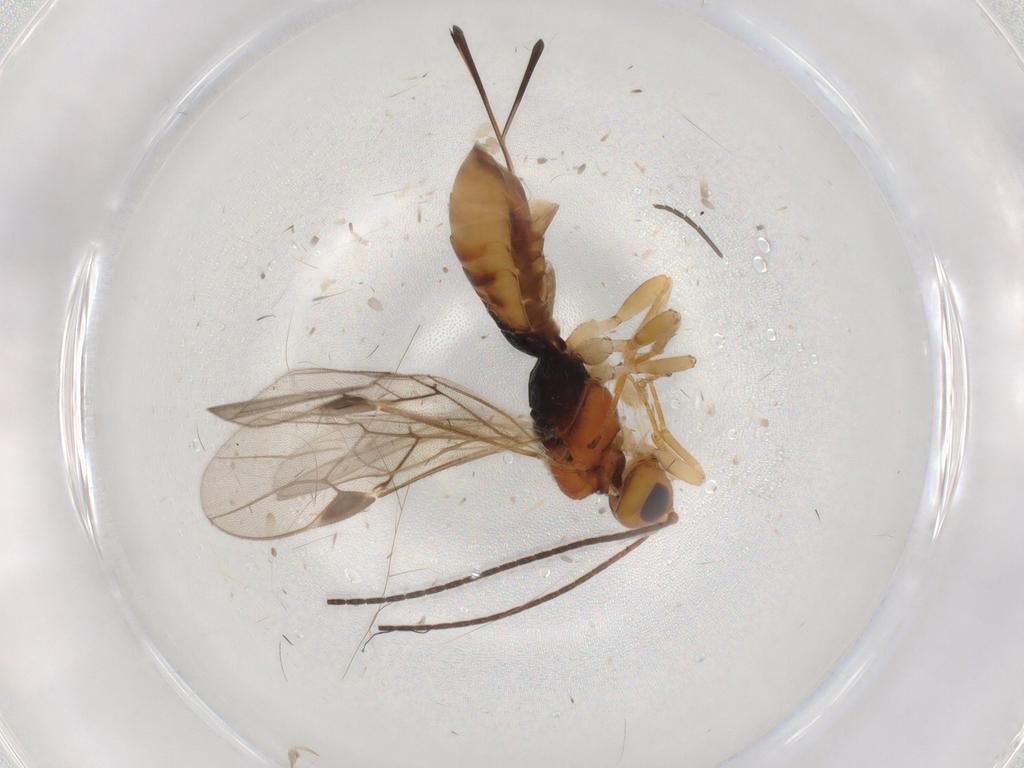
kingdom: Animalia
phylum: Arthropoda
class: Insecta
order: Hymenoptera
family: Braconidae
